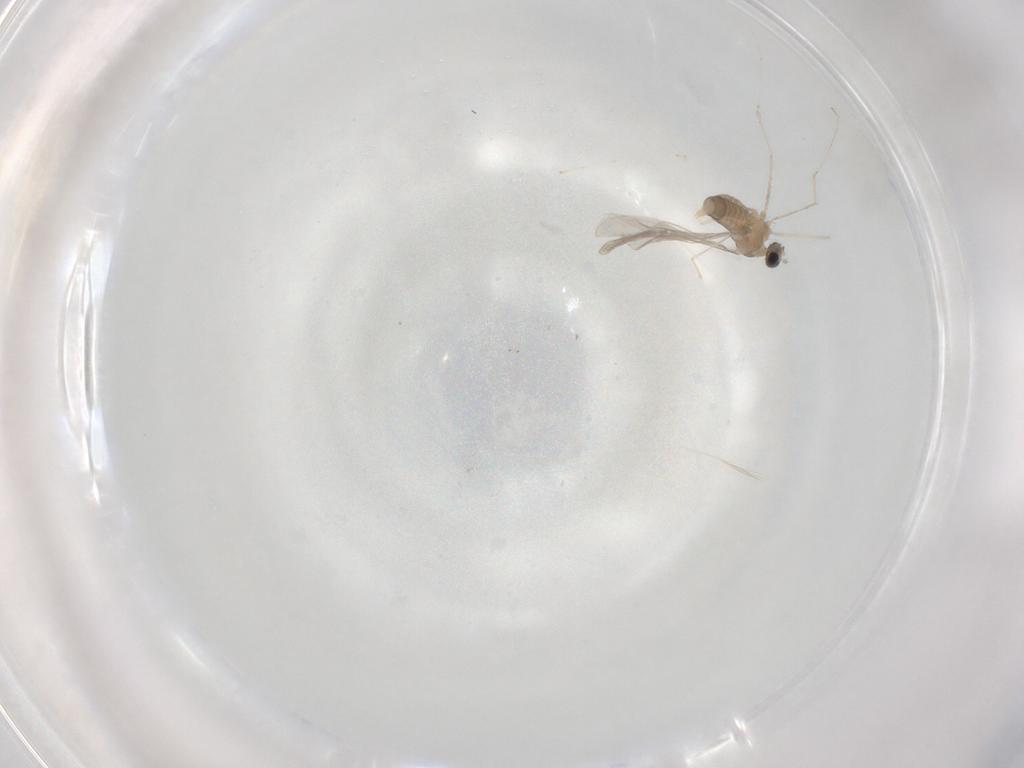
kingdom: Animalia
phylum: Arthropoda
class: Insecta
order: Diptera
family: Cecidomyiidae
